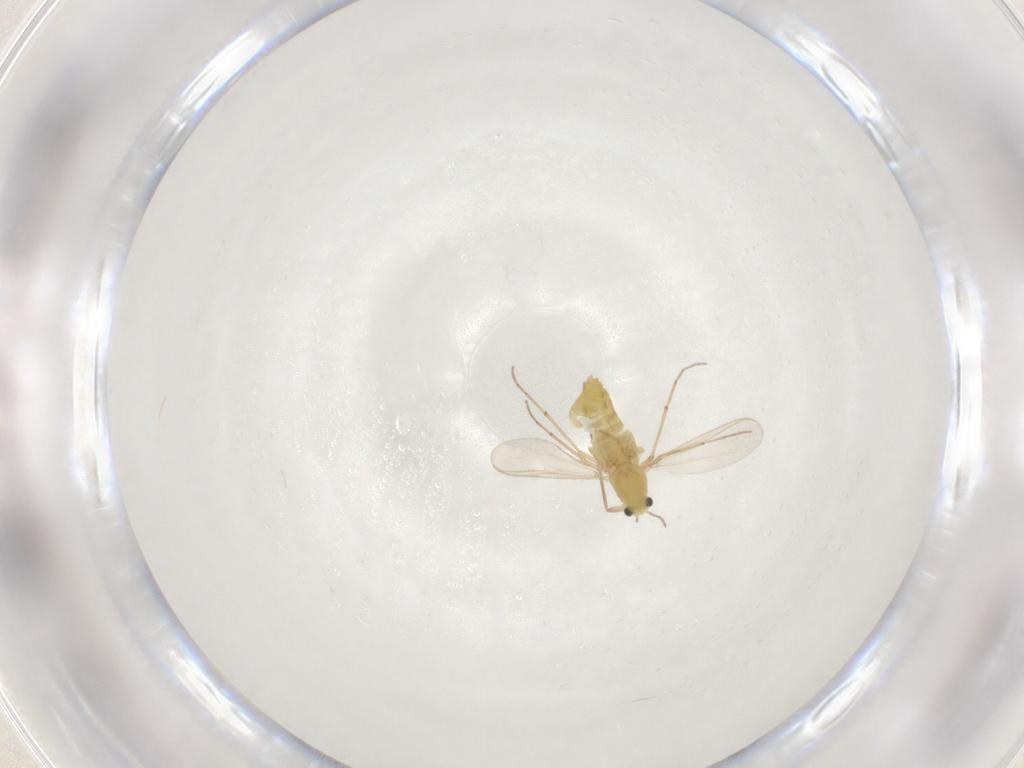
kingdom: Animalia
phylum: Arthropoda
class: Insecta
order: Diptera
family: Chironomidae
